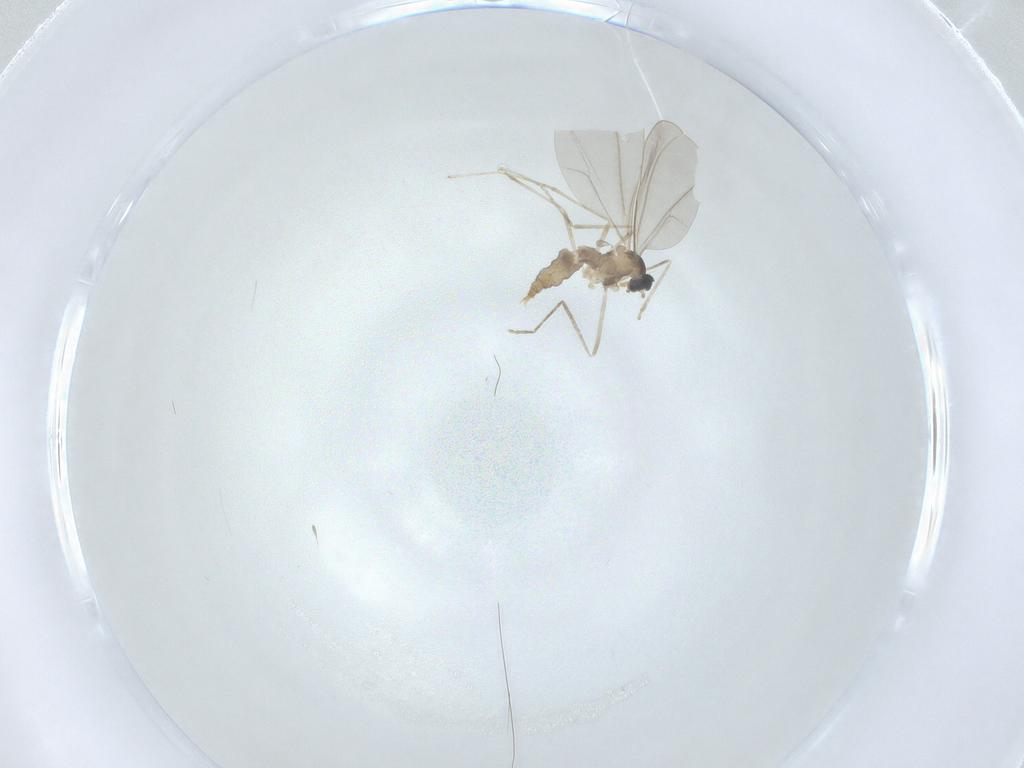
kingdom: Animalia
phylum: Arthropoda
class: Insecta
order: Diptera
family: Cecidomyiidae
